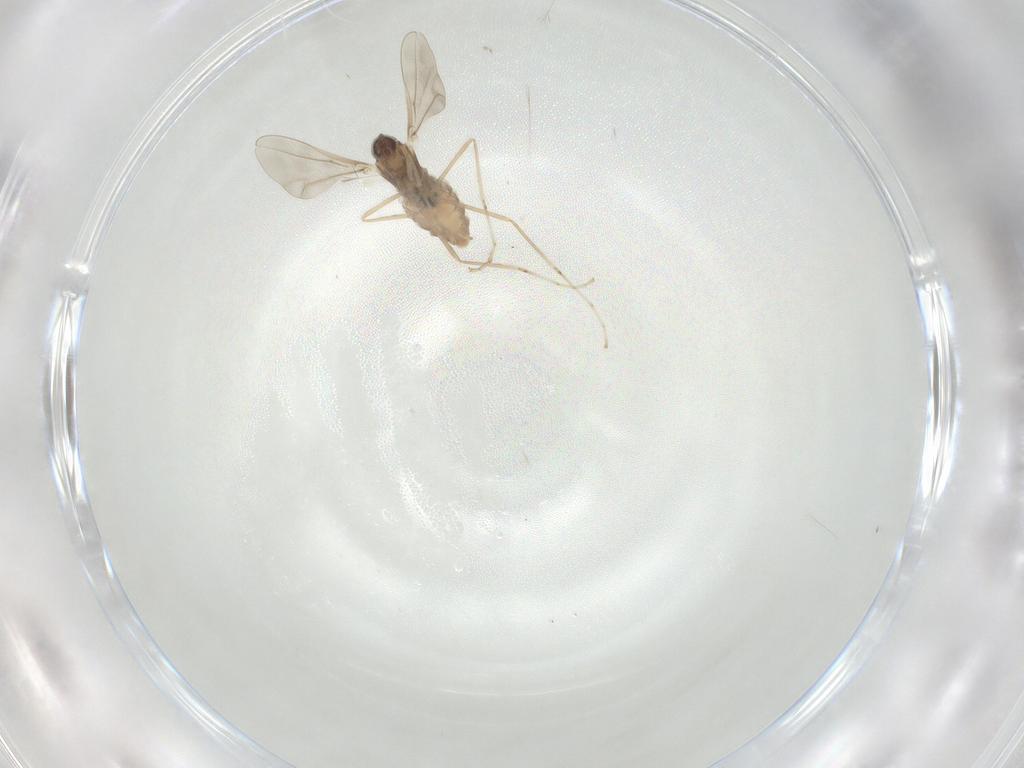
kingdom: Animalia
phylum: Arthropoda
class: Insecta
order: Diptera
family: Cecidomyiidae
